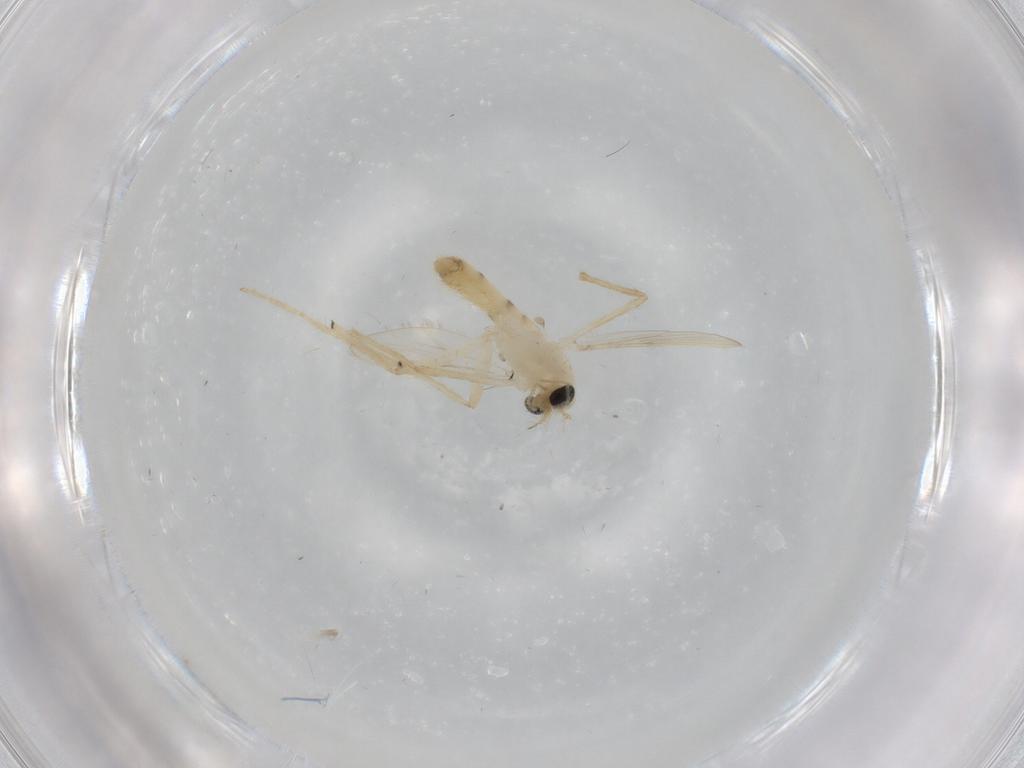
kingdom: Animalia
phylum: Arthropoda
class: Insecta
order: Diptera
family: Chironomidae
